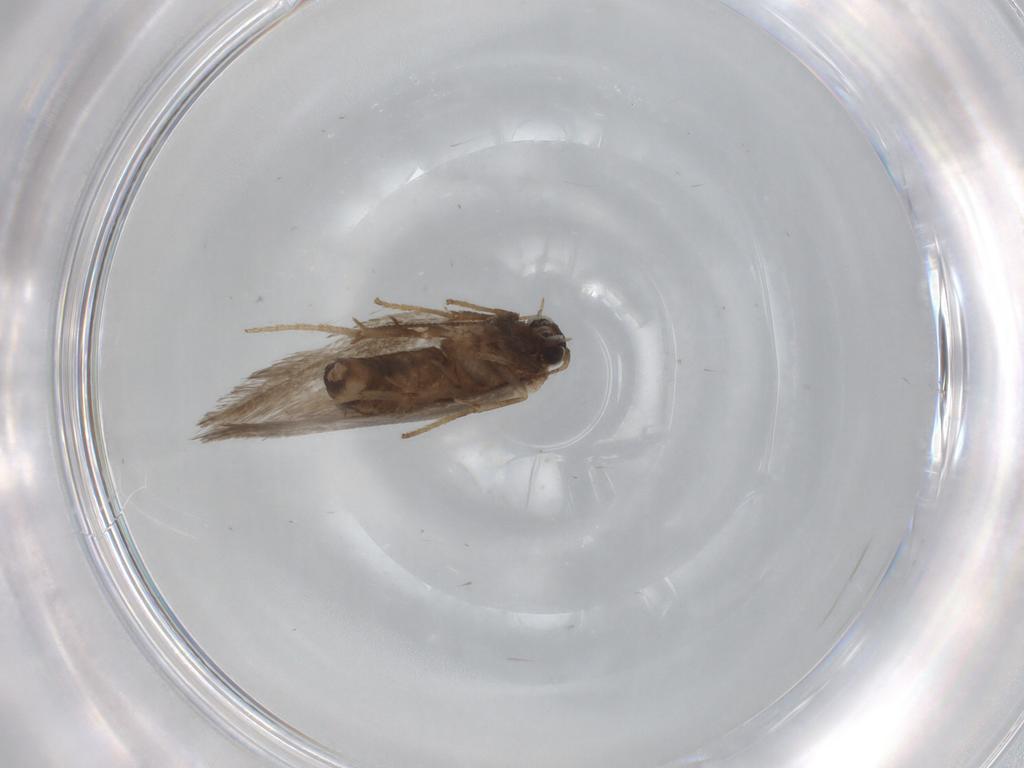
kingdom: Animalia
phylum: Arthropoda
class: Insecta
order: Lepidoptera
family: Nepticulidae
